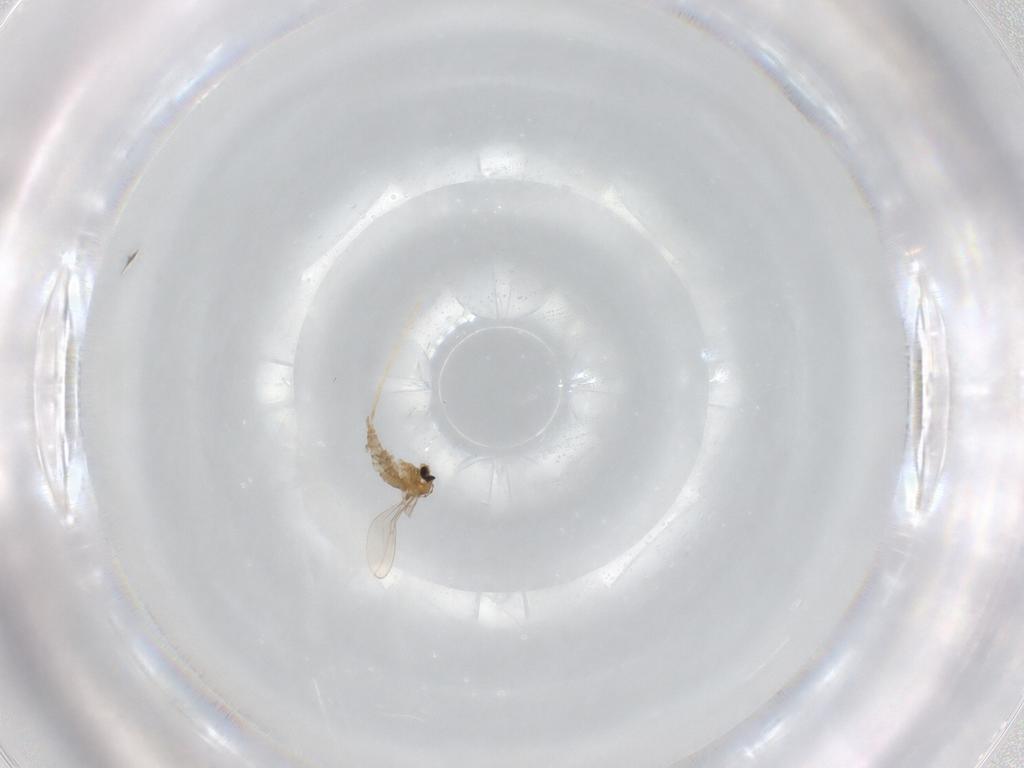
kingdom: Animalia
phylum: Arthropoda
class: Insecta
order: Diptera
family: Cecidomyiidae
